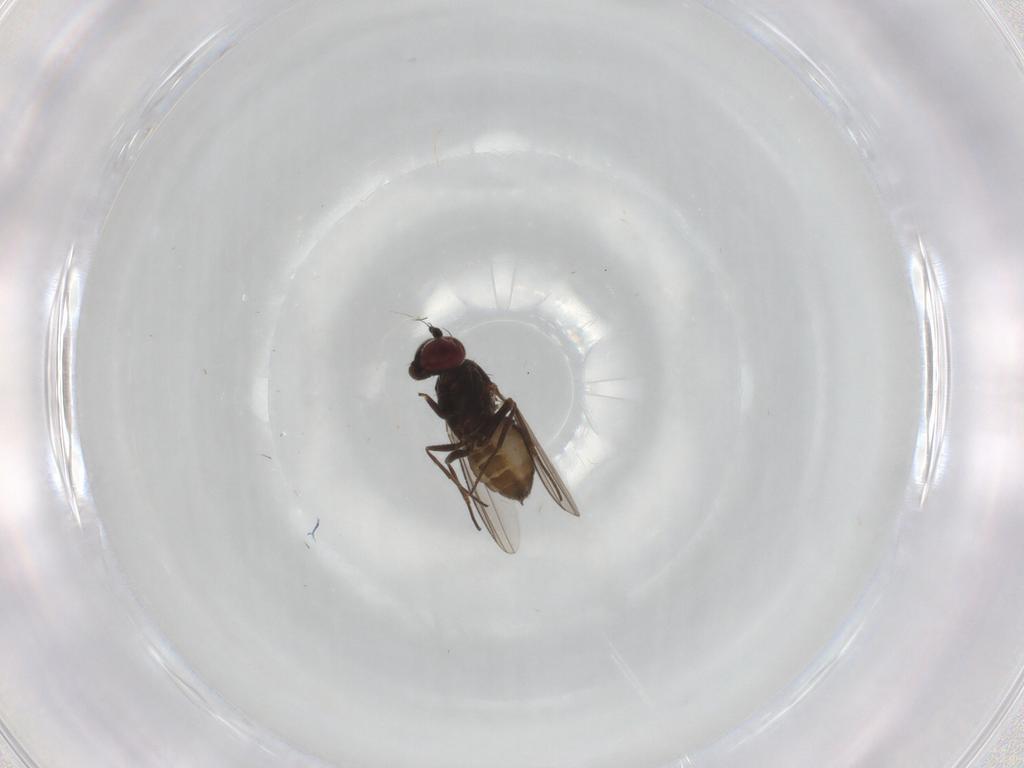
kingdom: Animalia
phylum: Arthropoda
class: Insecta
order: Diptera
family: Dolichopodidae
